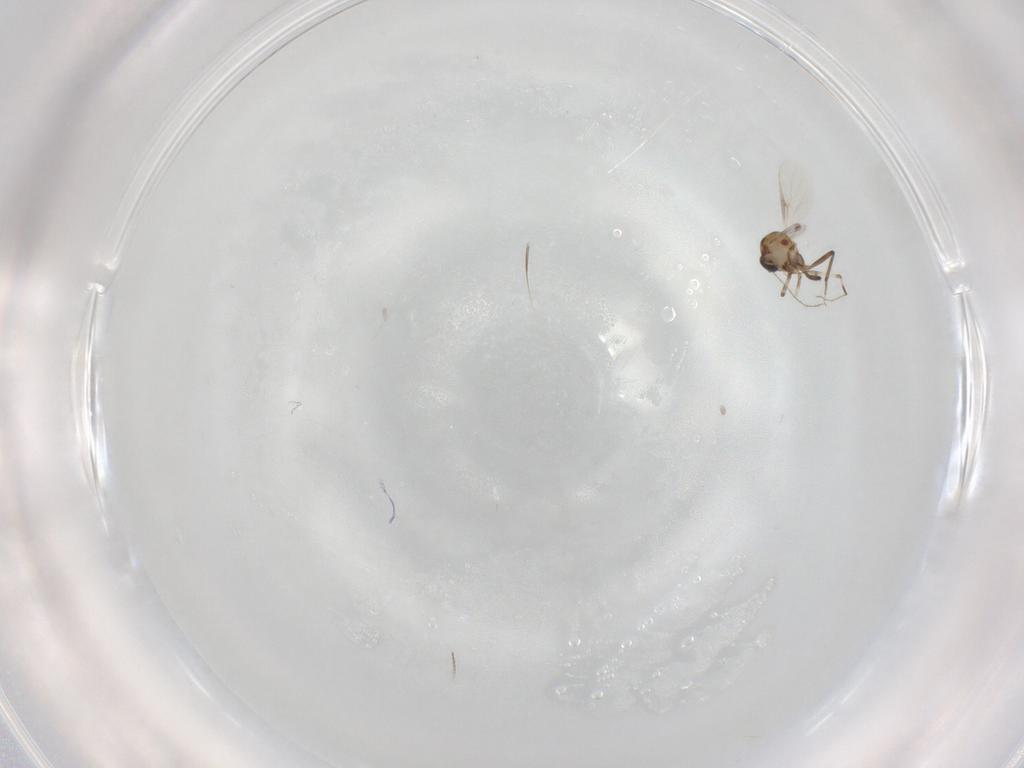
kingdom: Animalia
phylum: Arthropoda
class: Insecta
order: Diptera
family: Ceratopogonidae
